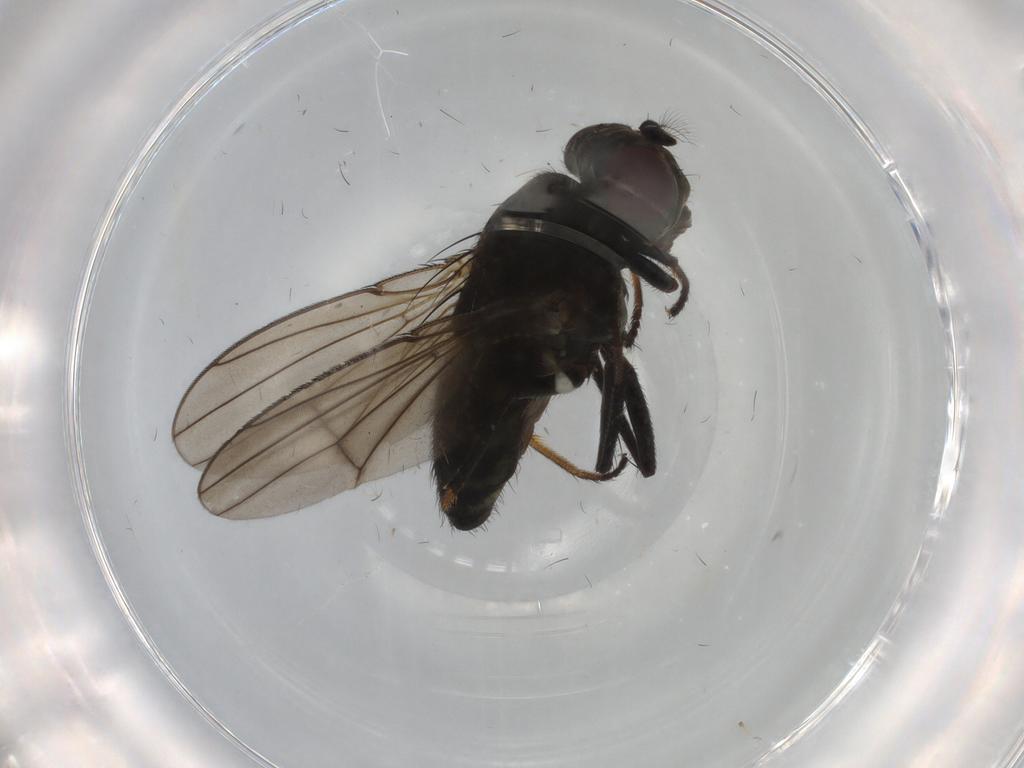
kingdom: Animalia
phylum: Arthropoda
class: Insecta
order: Diptera
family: Ephydridae
